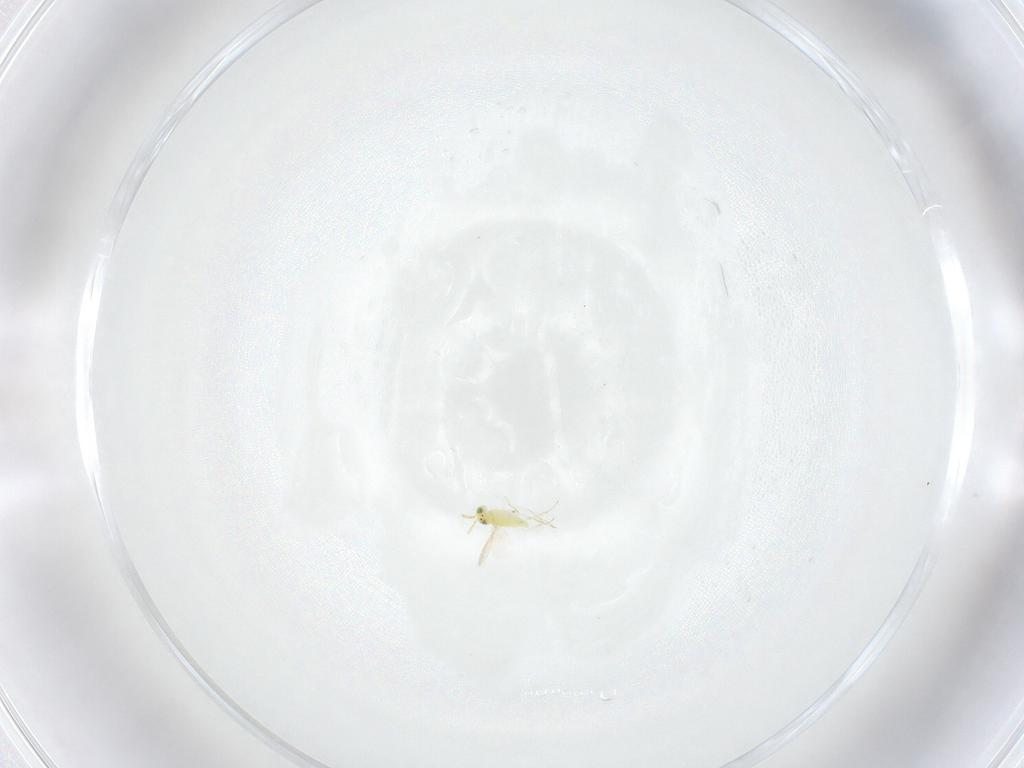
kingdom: Animalia
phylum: Arthropoda
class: Insecta
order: Hymenoptera
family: Aphelinidae
